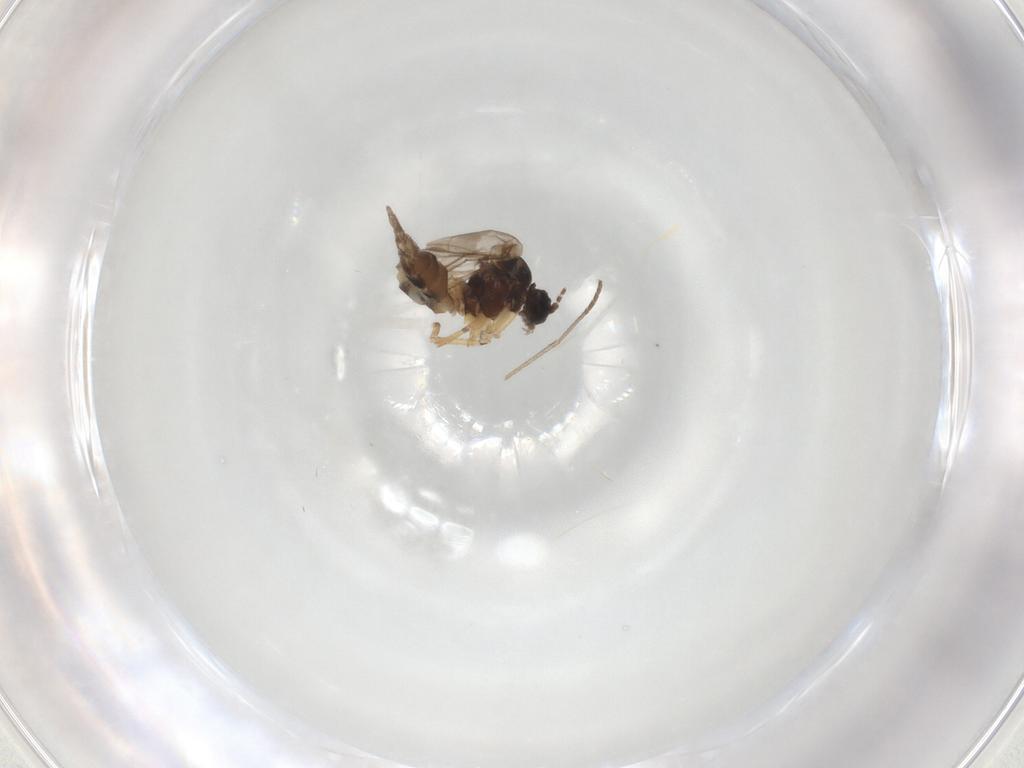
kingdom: Animalia
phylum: Arthropoda
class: Insecta
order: Diptera
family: Sciaridae
